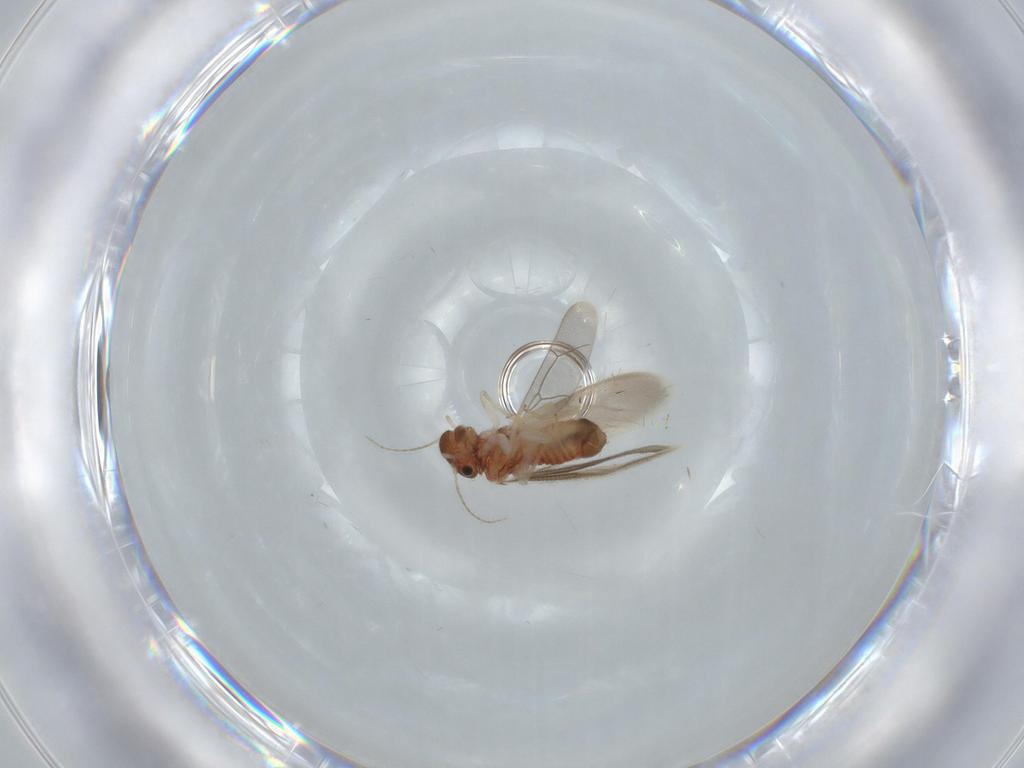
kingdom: Animalia
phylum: Arthropoda
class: Insecta
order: Psocodea
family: Archipsocidae
